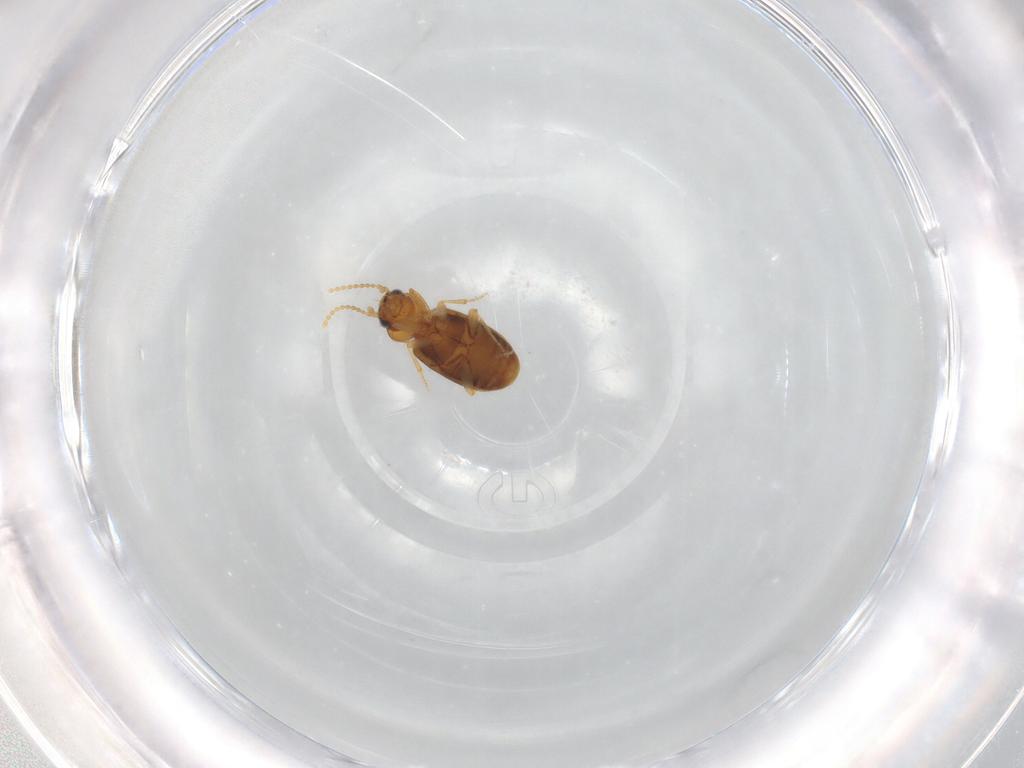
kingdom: Animalia
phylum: Arthropoda
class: Insecta
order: Coleoptera
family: Carabidae
